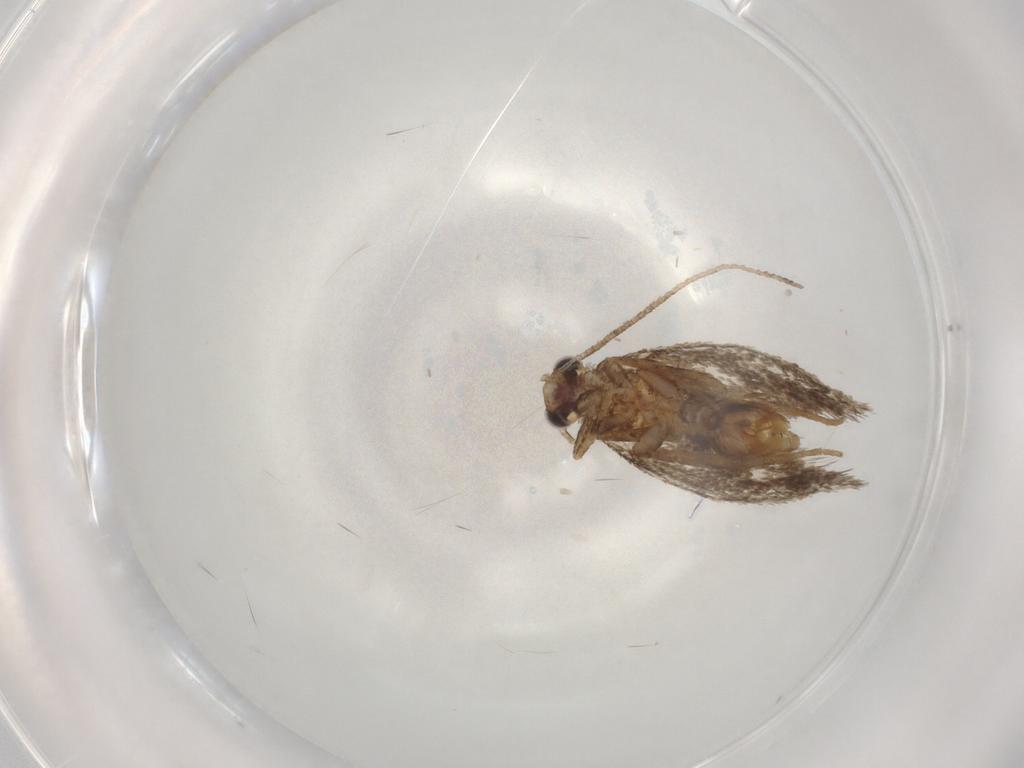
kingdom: Animalia
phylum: Arthropoda
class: Insecta
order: Lepidoptera
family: Tineidae
